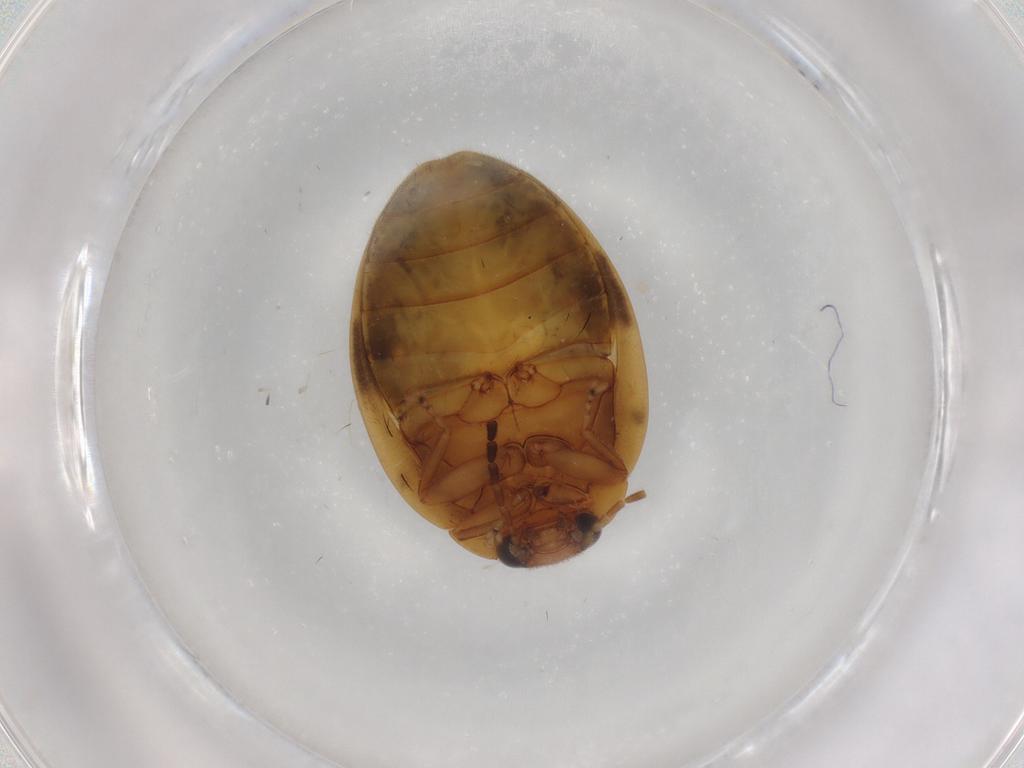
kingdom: Animalia
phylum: Arthropoda
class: Insecta
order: Coleoptera
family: Scirtidae
